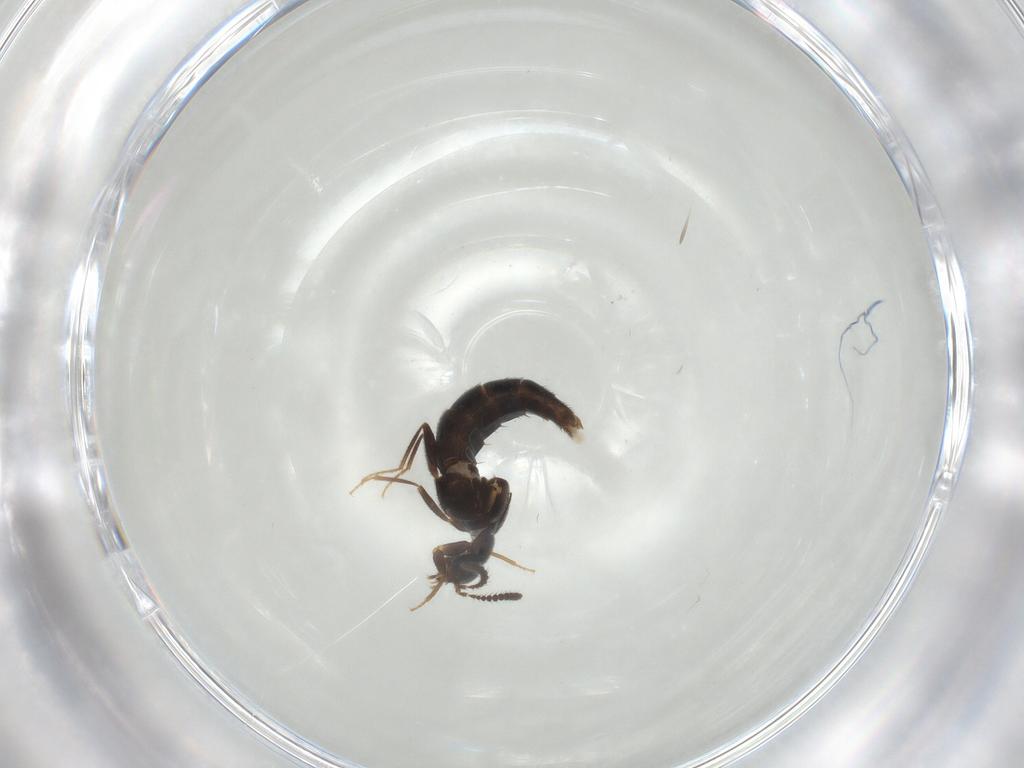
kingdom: Animalia
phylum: Arthropoda
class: Insecta
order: Coleoptera
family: Staphylinidae
